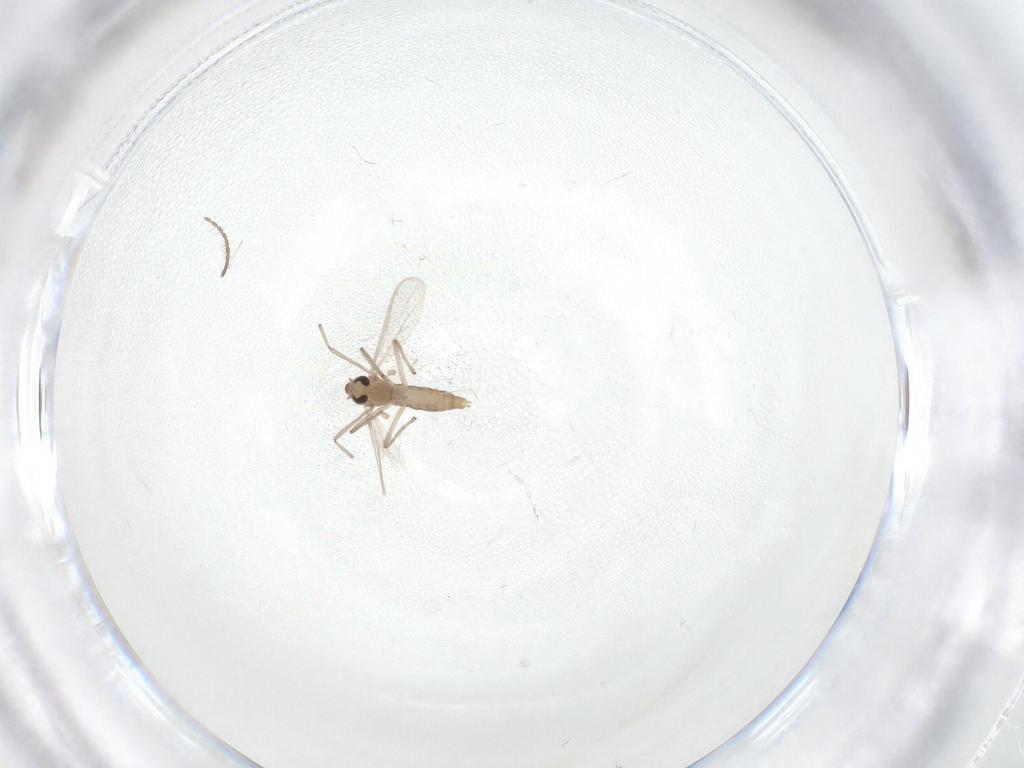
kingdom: Animalia
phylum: Arthropoda
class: Insecta
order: Diptera
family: Chironomidae
